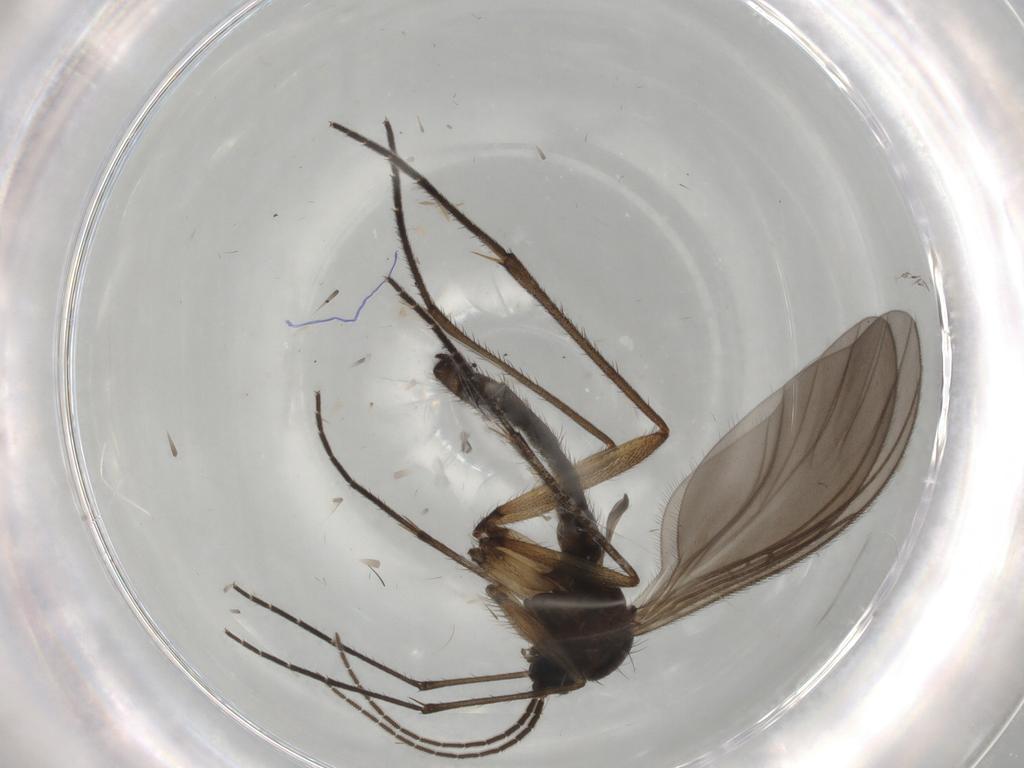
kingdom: Animalia
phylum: Arthropoda
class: Insecta
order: Diptera
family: Sciaridae
